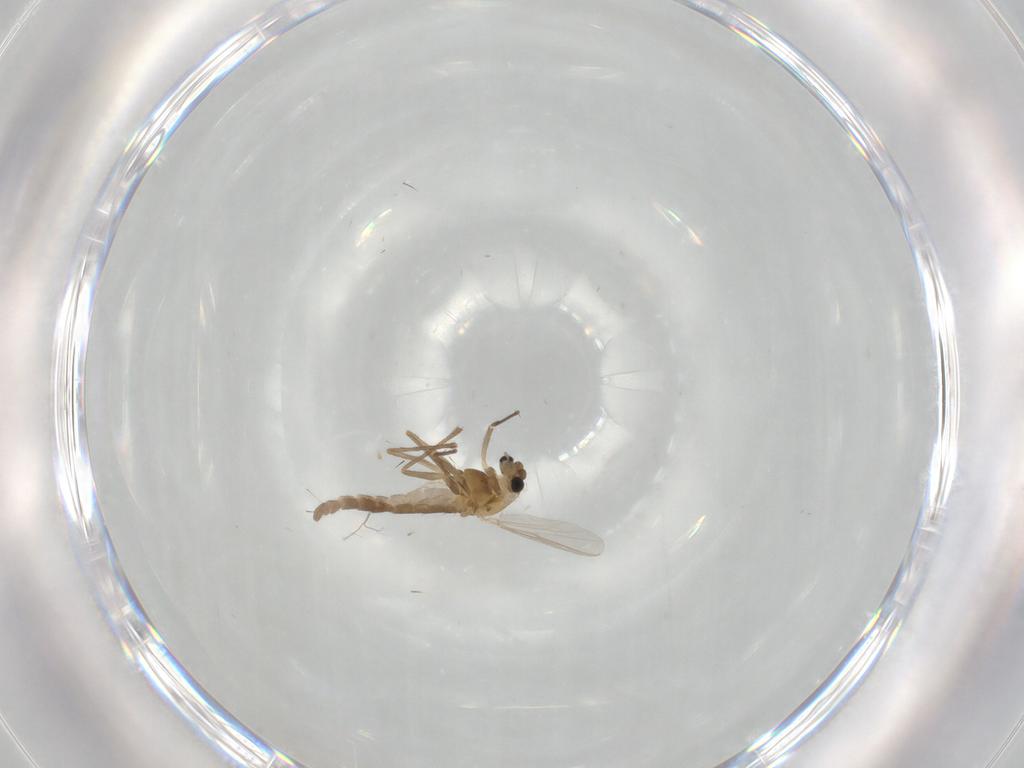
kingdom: Animalia
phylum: Arthropoda
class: Insecta
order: Diptera
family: Chironomidae
